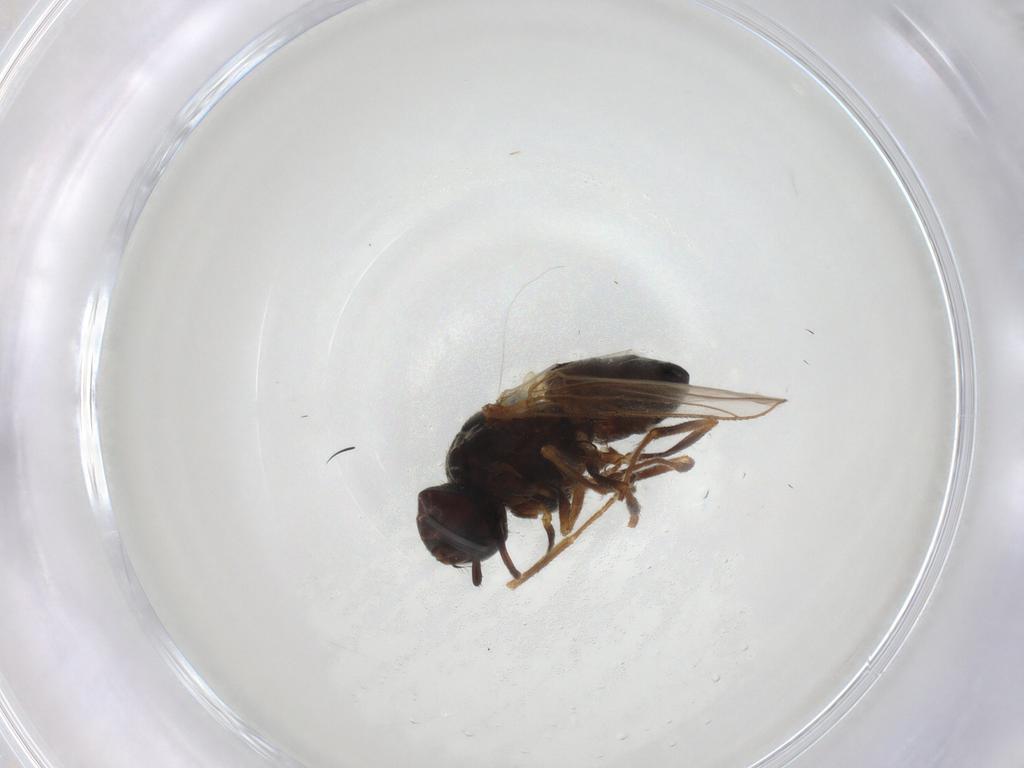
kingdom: Animalia
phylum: Arthropoda
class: Insecta
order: Diptera
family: Muscidae
